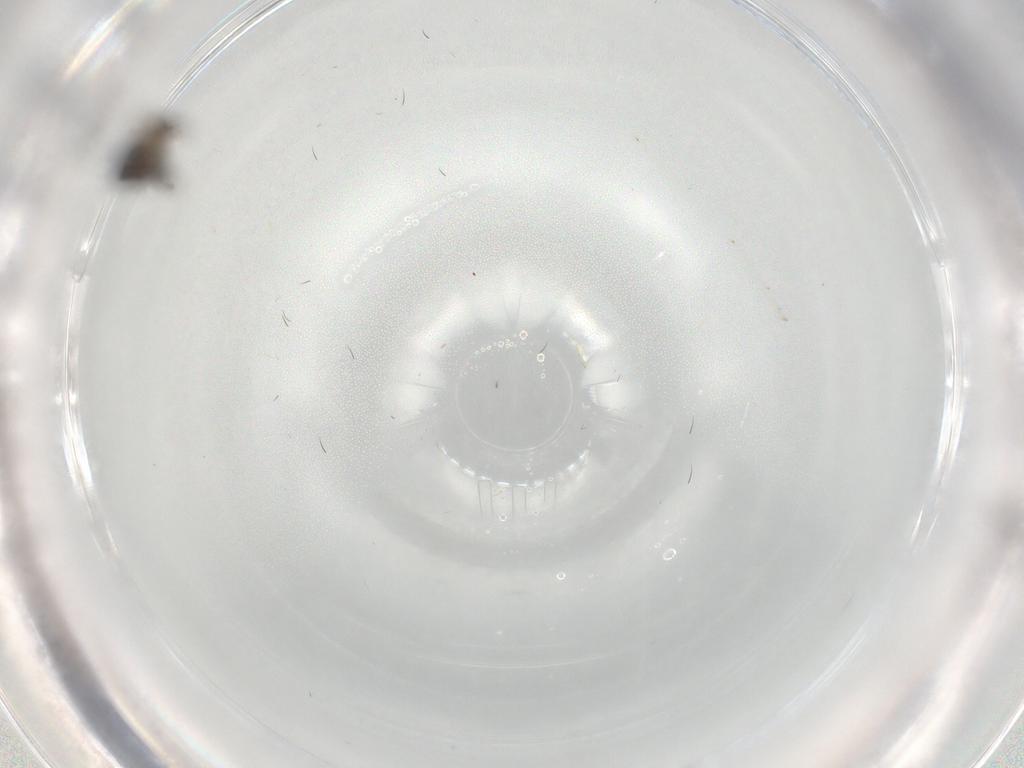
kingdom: Animalia
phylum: Arthropoda
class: Insecta
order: Diptera
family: Phoridae
